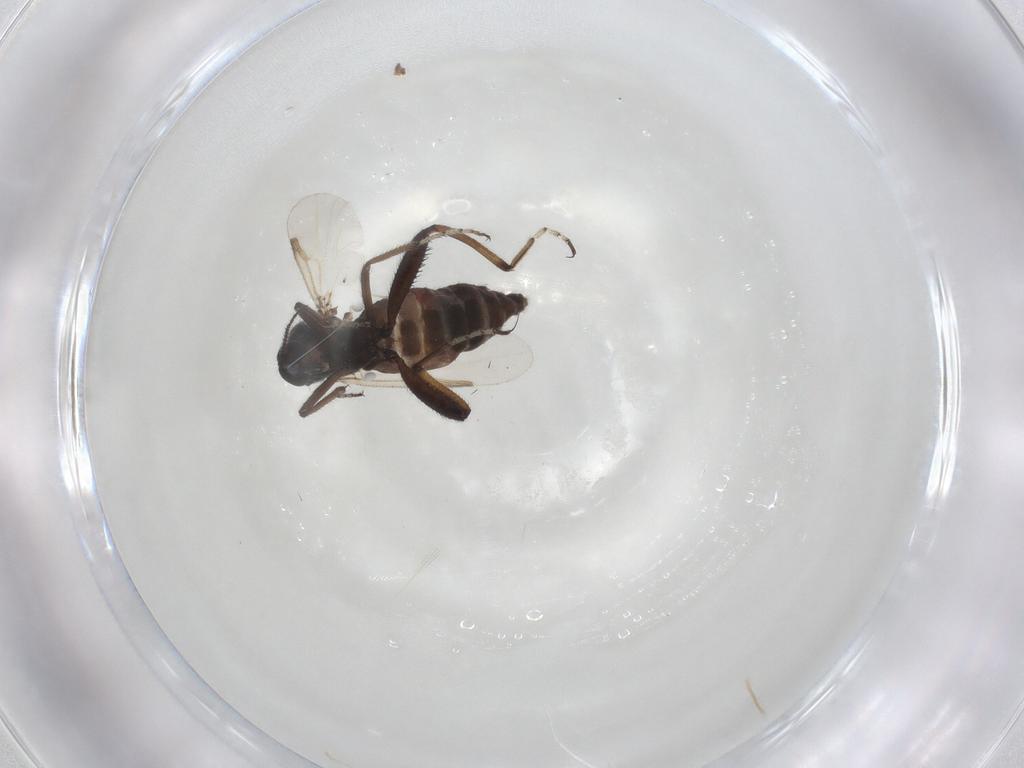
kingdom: Animalia
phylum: Arthropoda
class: Insecta
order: Diptera
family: Ceratopogonidae
